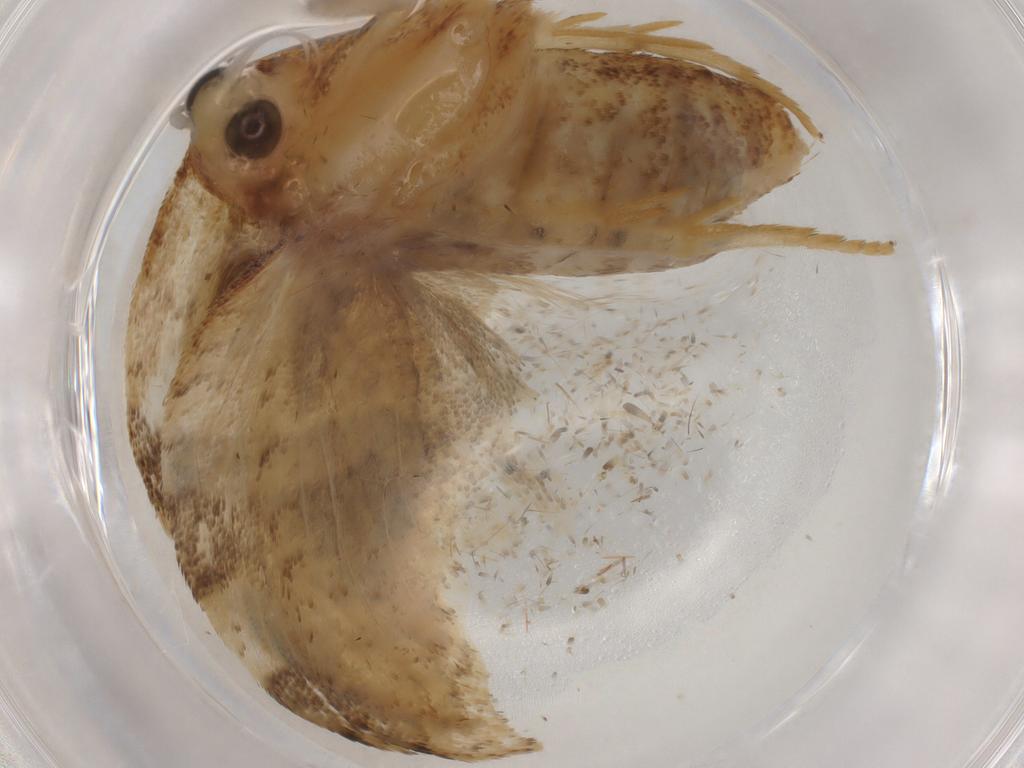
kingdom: Animalia
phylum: Arthropoda
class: Insecta
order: Lepidoptera
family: Tortricidae
